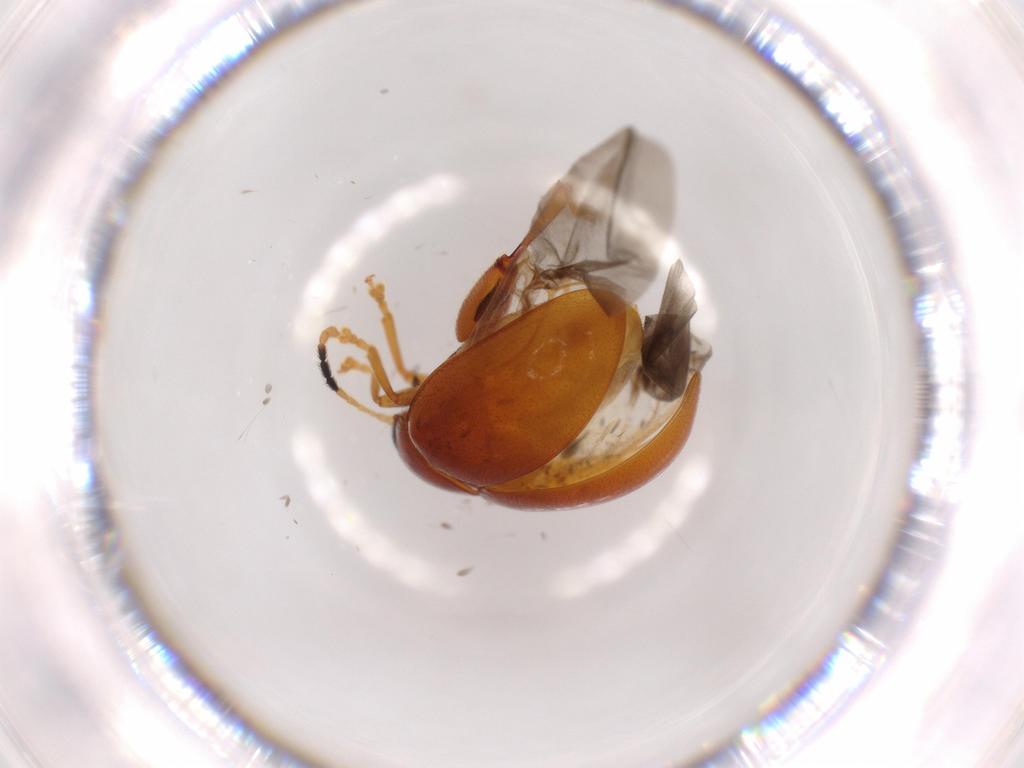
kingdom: Animalia
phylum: Arthropoda
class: Insecta
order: Coleoptera
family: Chrysomelidae
